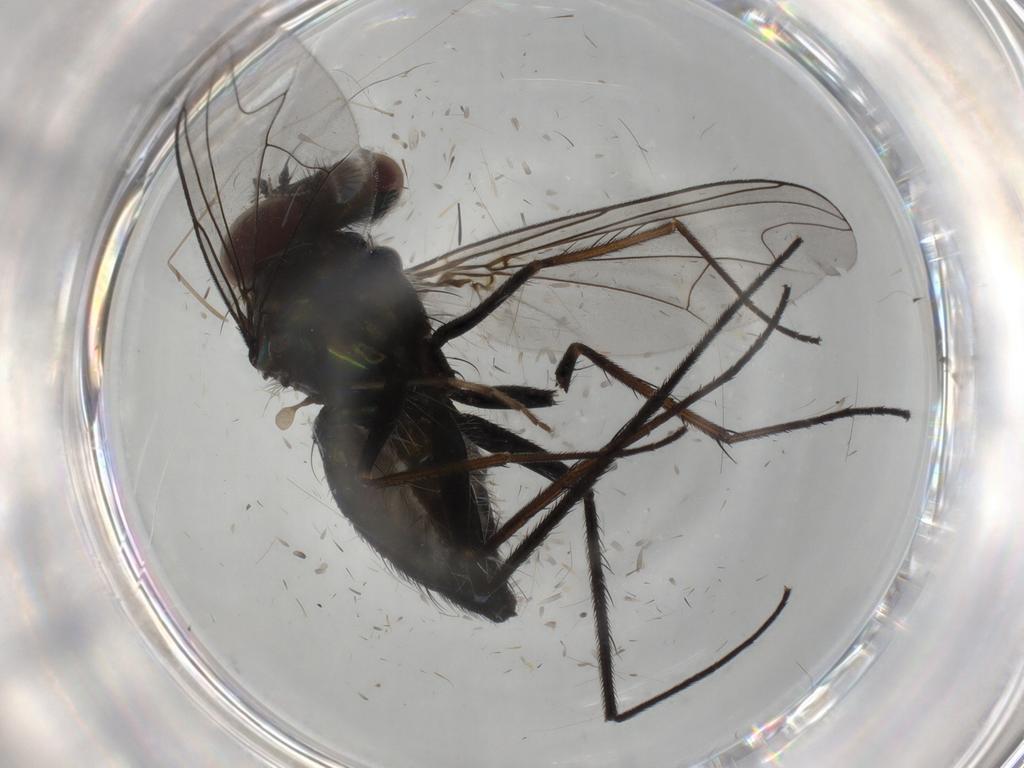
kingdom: Animalia
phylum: Arthropoda
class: Insecta
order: Diptera
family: Dolichopodidae
